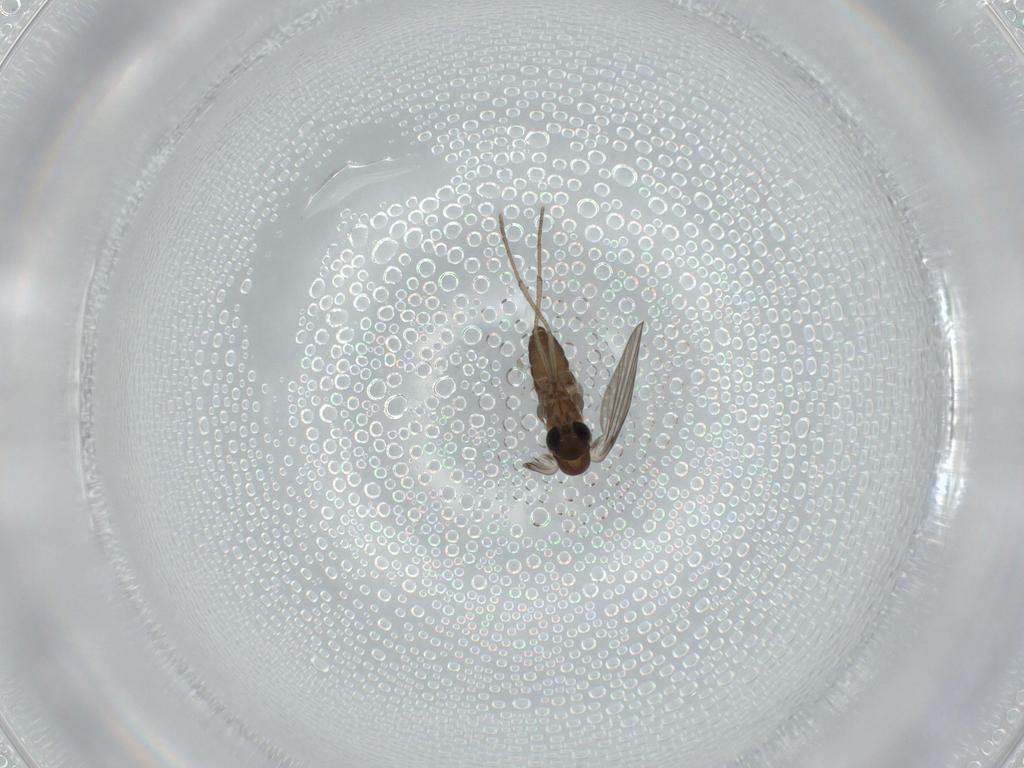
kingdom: Animalia
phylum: Arthropoda
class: Insecta
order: Diptera
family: Psychodidae
